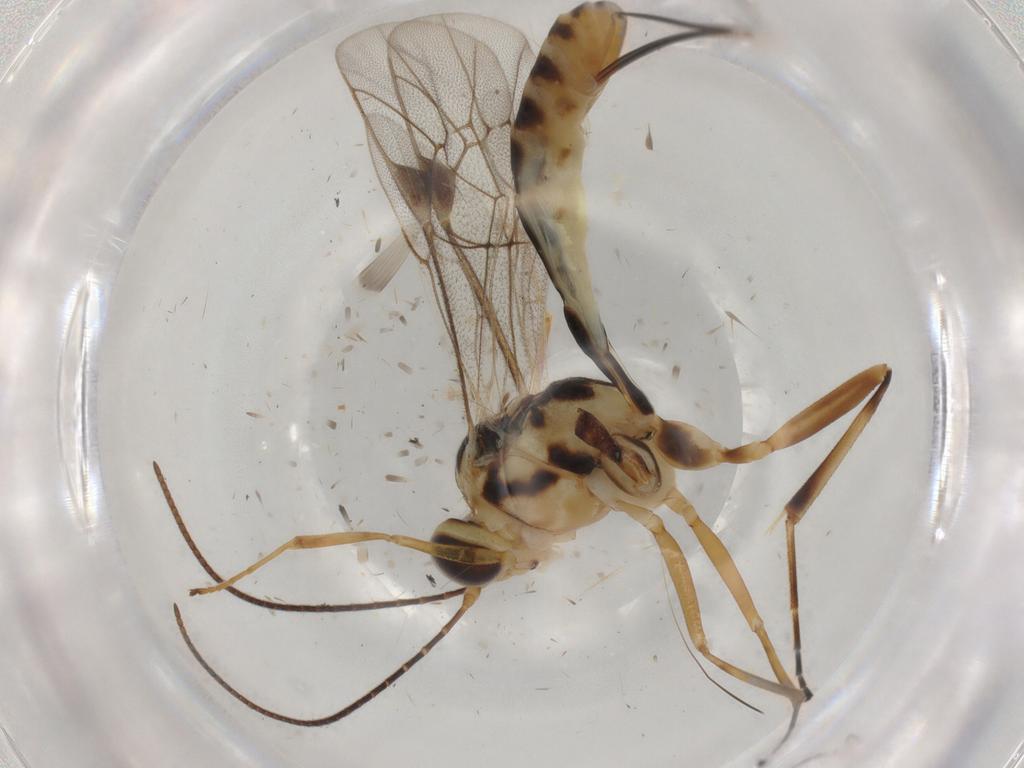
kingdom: Animalia
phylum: Arthropoda
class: Insecta
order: Hymenoptera
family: Ichneumonidae
